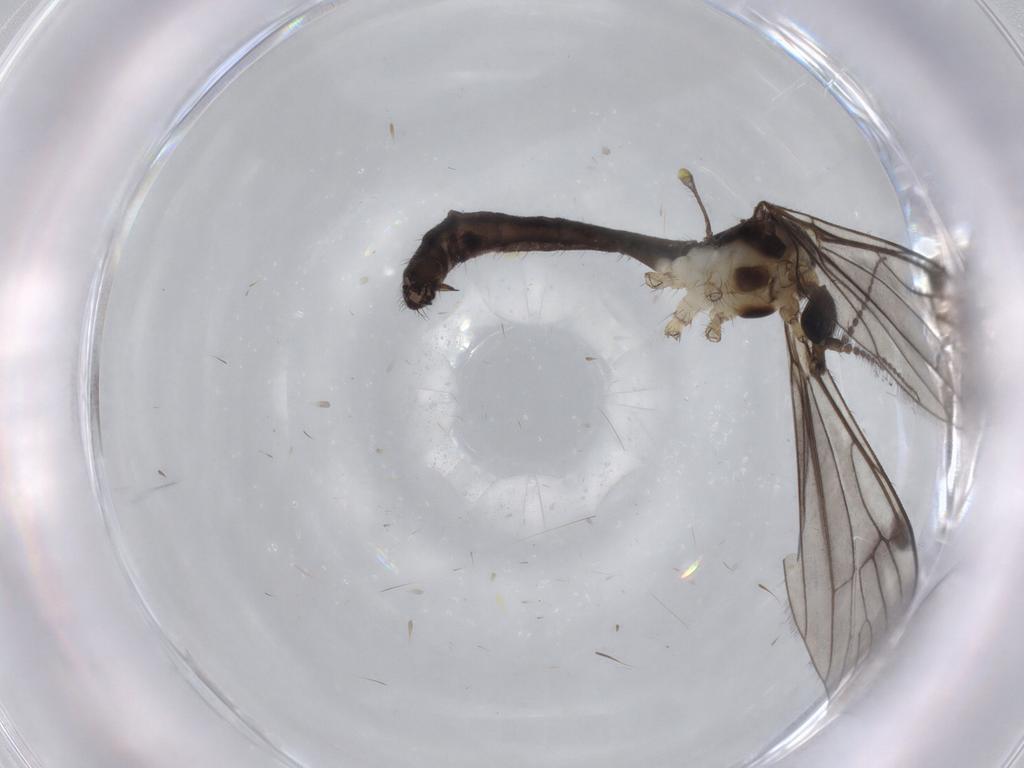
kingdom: Animalia
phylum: Arthropoda
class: Insecta
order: Diptera
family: Limoniidae
